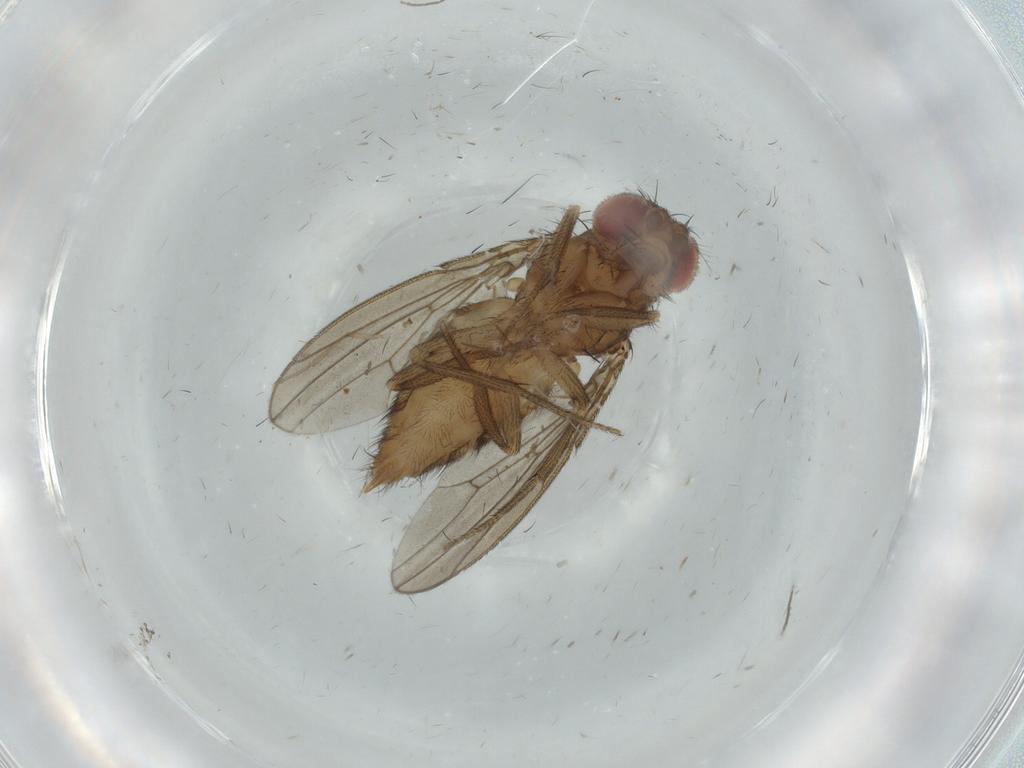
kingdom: Animalia
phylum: Arthropoda
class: Insecta
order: Diptera
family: Drosophilidae
